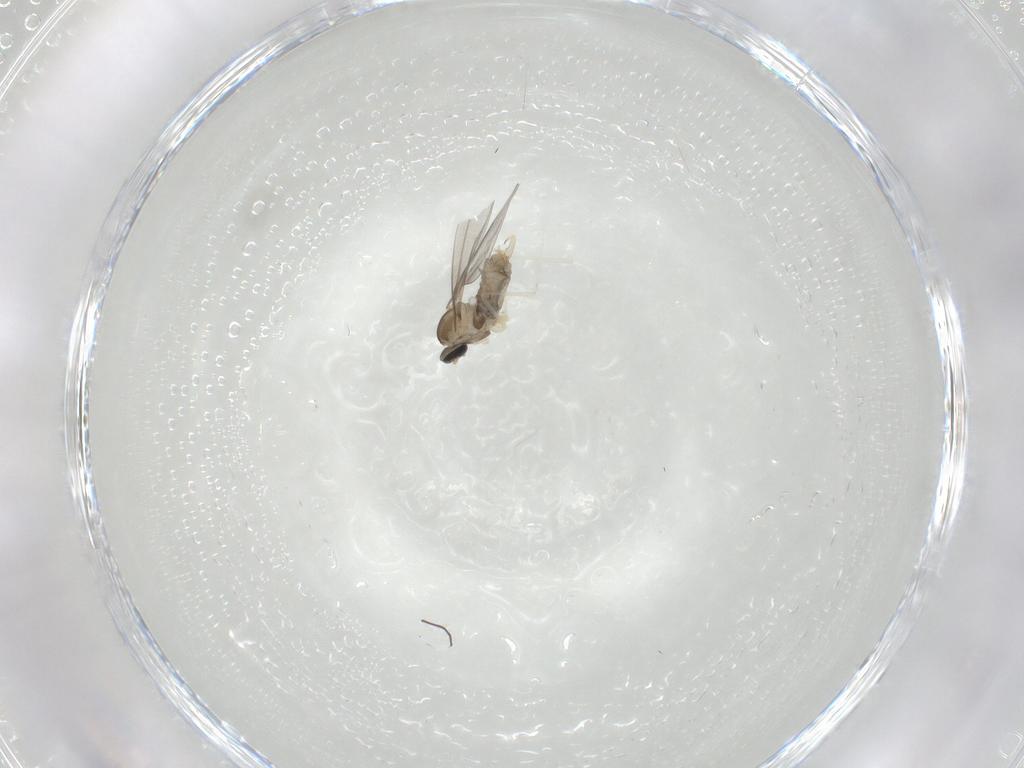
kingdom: Animalia
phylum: Arthropoda
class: Insecta
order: Diptera
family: Cecidomyiidae
